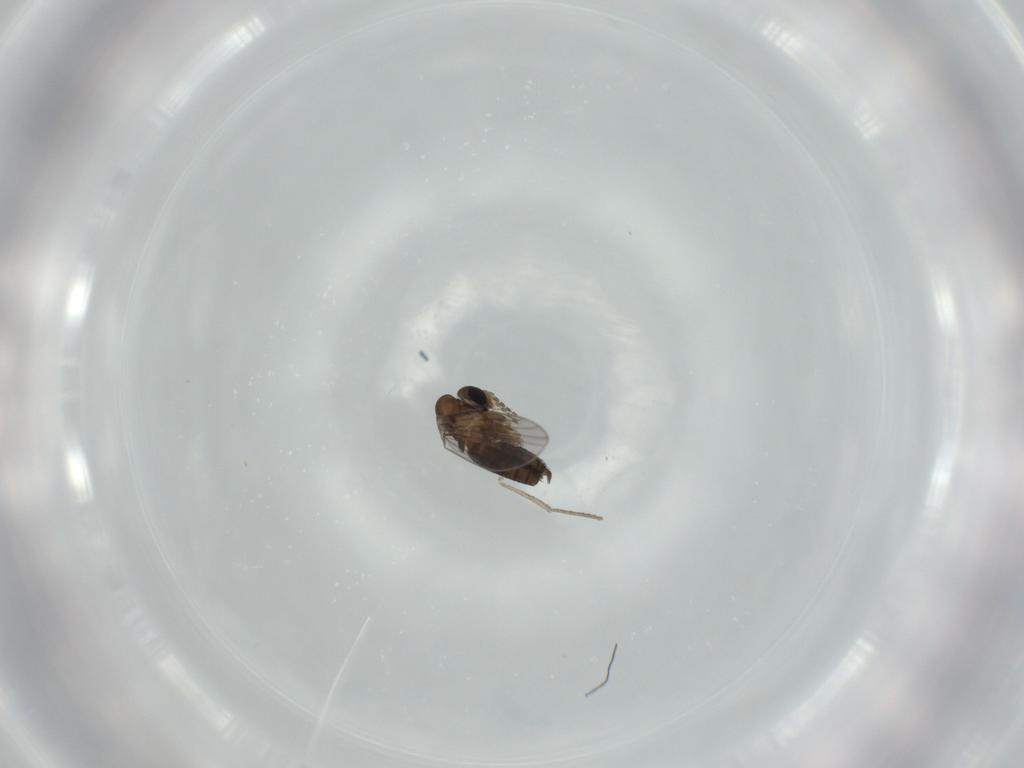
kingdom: Animalia
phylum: Arthropoda
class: Insecta
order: Diptera
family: Psychodidae
